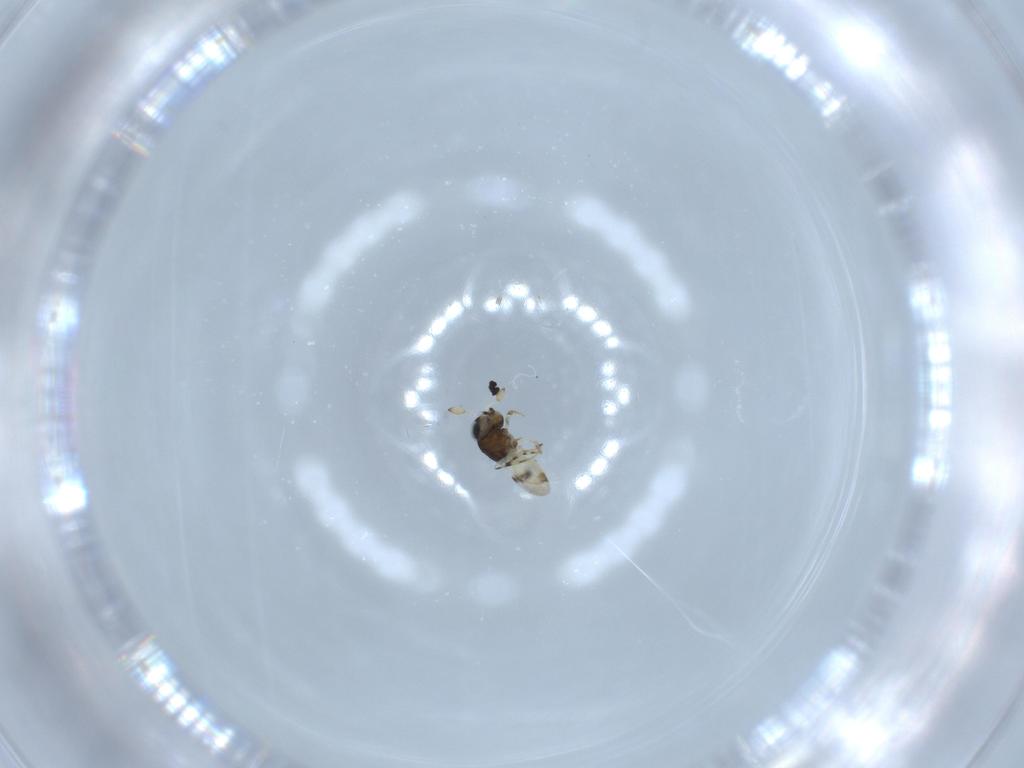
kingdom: Animalia
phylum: Arthropoda
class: Insecta
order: Hymenoptera
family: Scelionidae
